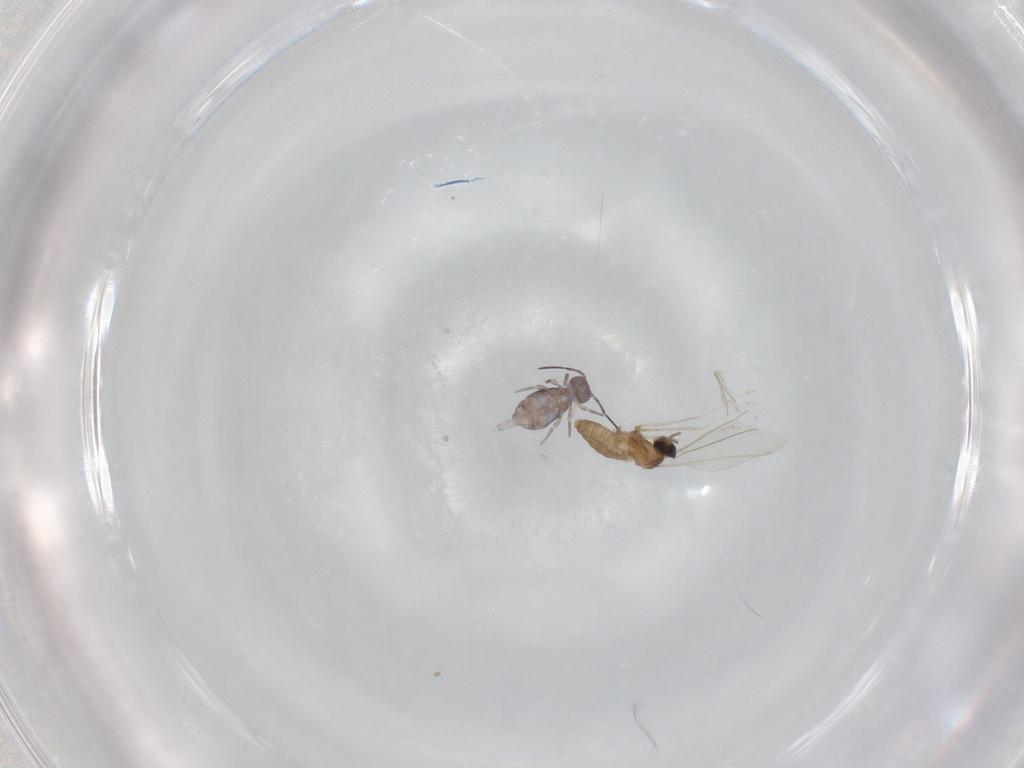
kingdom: Animalia
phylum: Arthropoda
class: Insecta
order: Diptera
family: Cecidomyiidae
